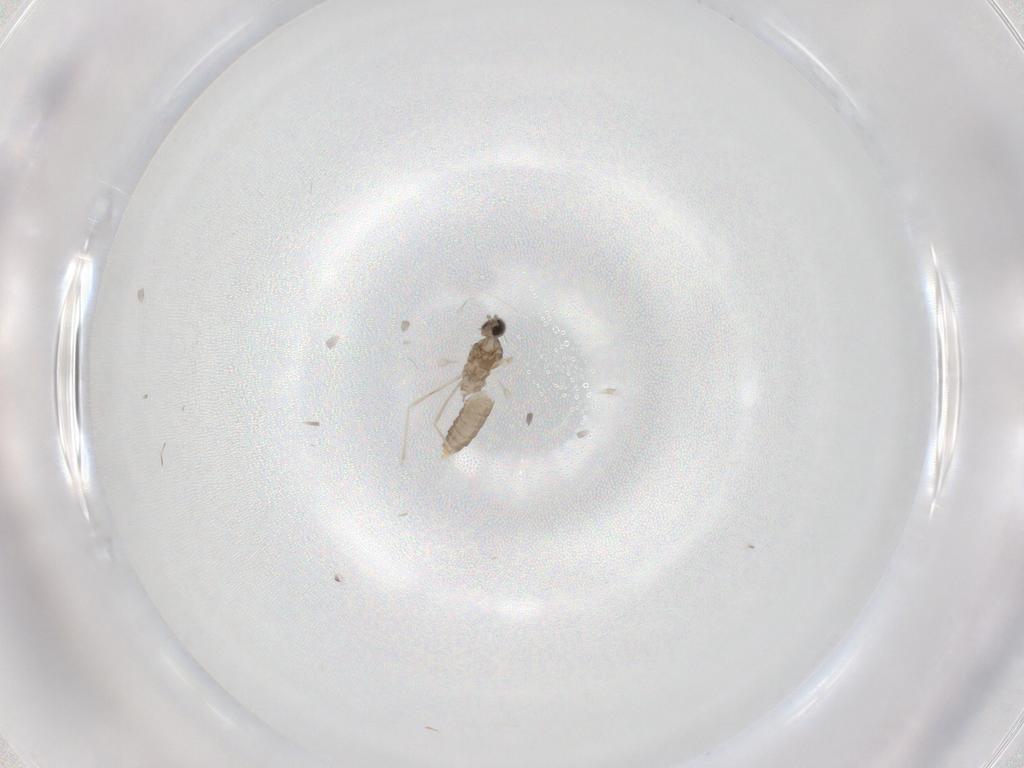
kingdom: Animalia
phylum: Arthropoda
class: Insecta
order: Diptera
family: Cecidomyiidae
